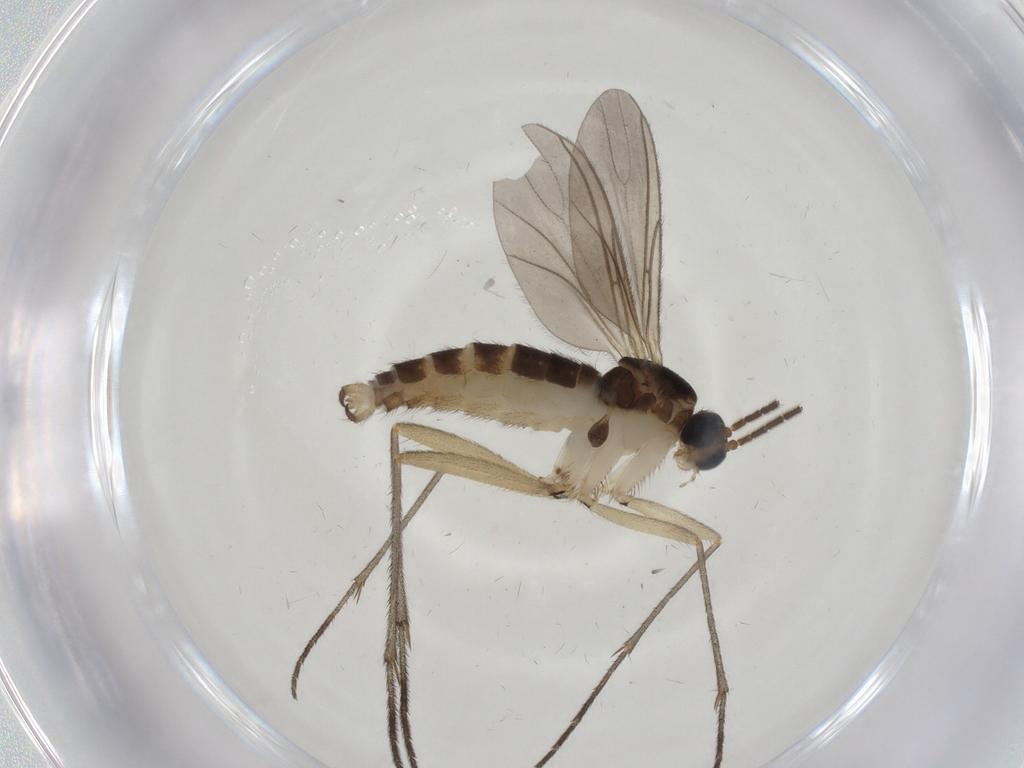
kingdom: Animalia
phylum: Arthropoda
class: Insecta
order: Diptera
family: Sciaridae
